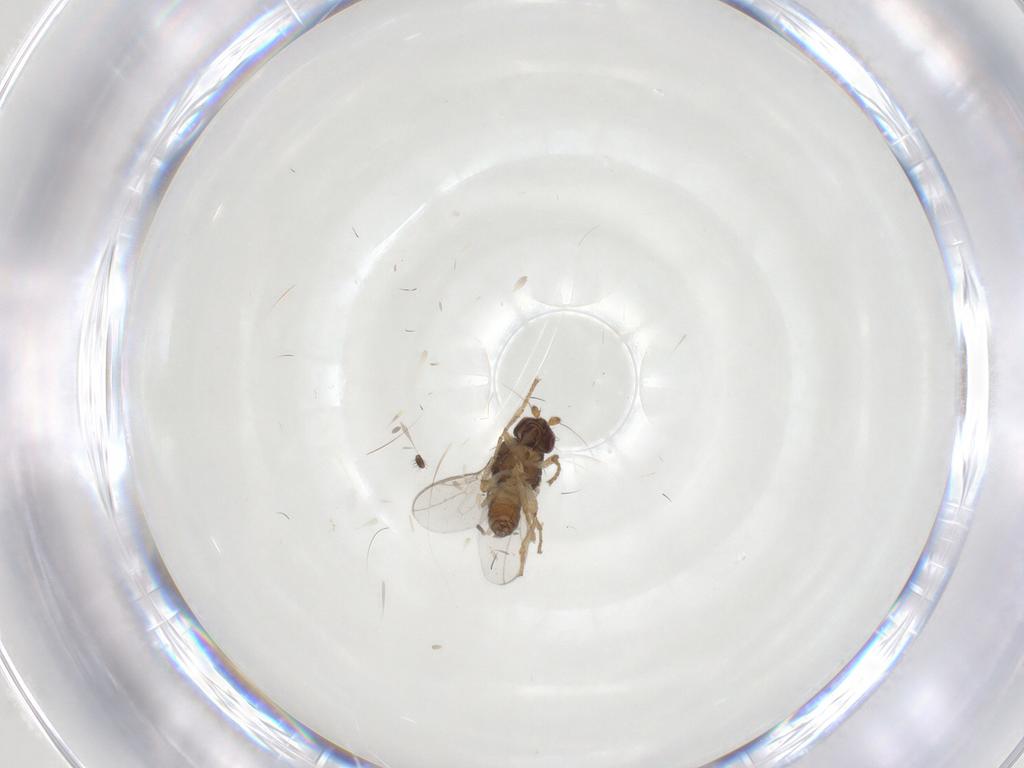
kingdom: Animalia
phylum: Arthropoda
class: Insecta
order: Diptera
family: Sphaeroceridae
